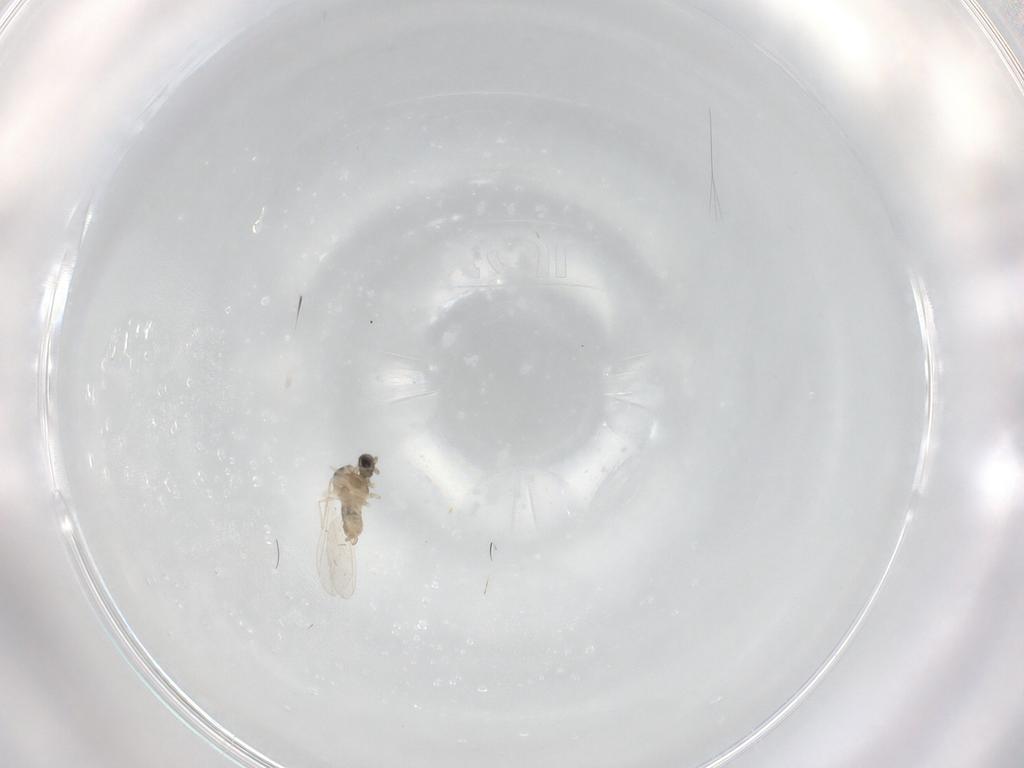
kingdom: Animalia
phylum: Arthropoda
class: Insecta
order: Diptera
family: Cecidomyiidae
